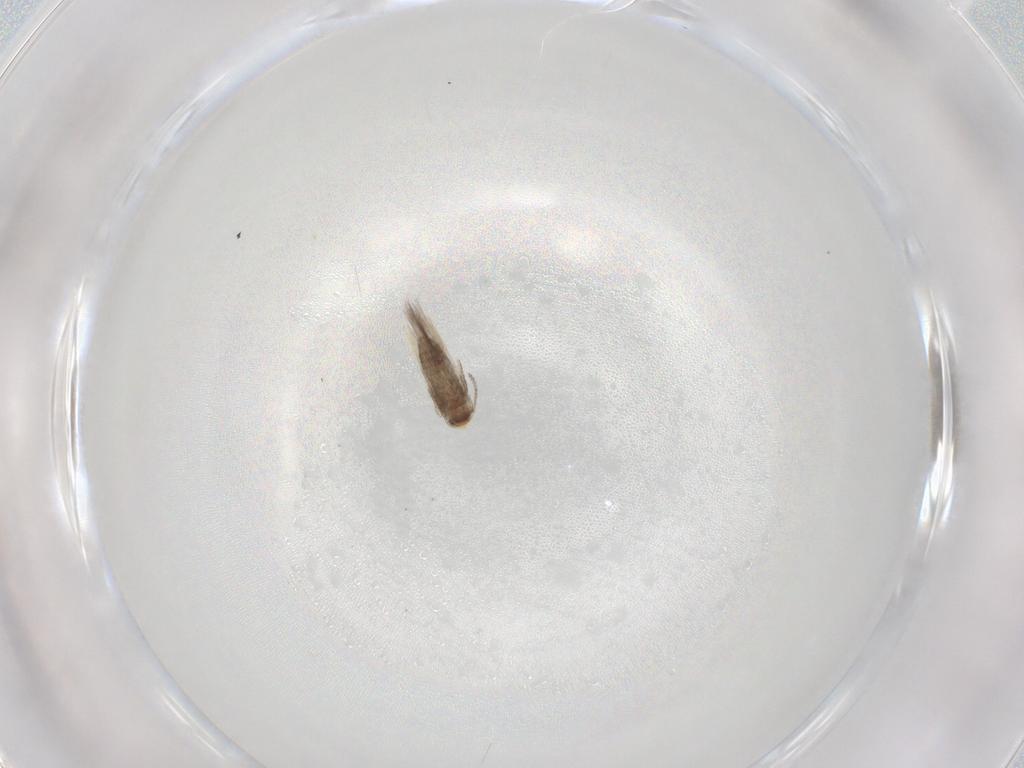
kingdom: Animalia
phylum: Arthropoda
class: Insecta
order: Lepidoptera
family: Nepticulidae
